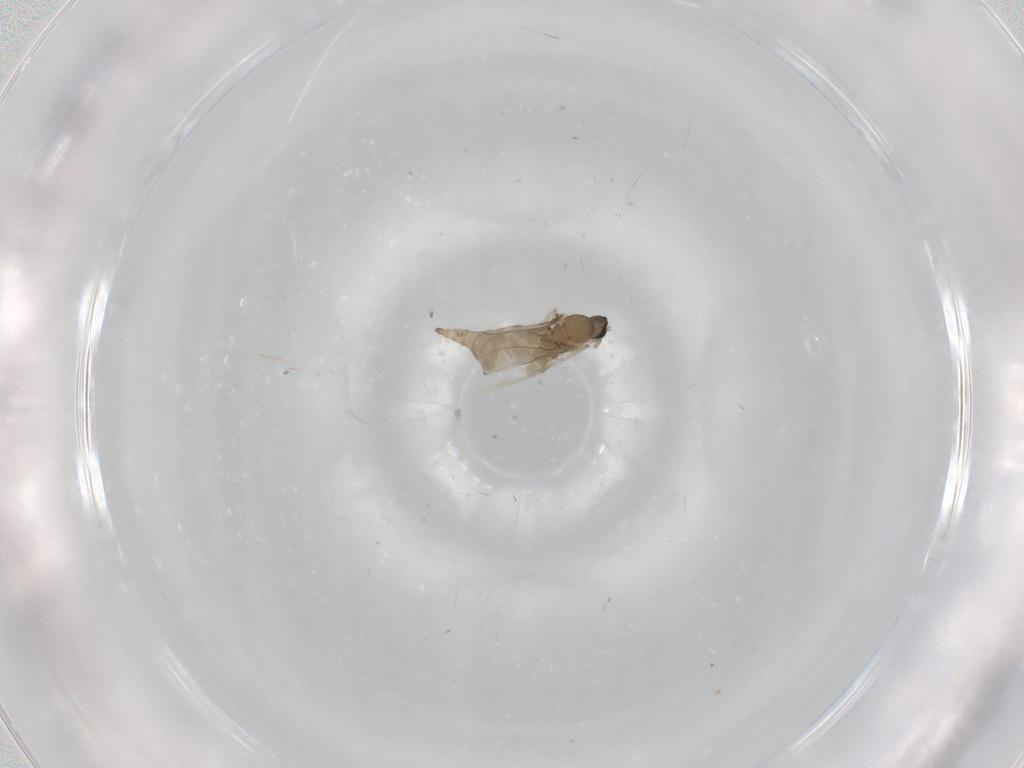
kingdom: Animalia
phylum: Arthropoda
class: Insecta
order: Diptera
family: Cecidomyiidae
